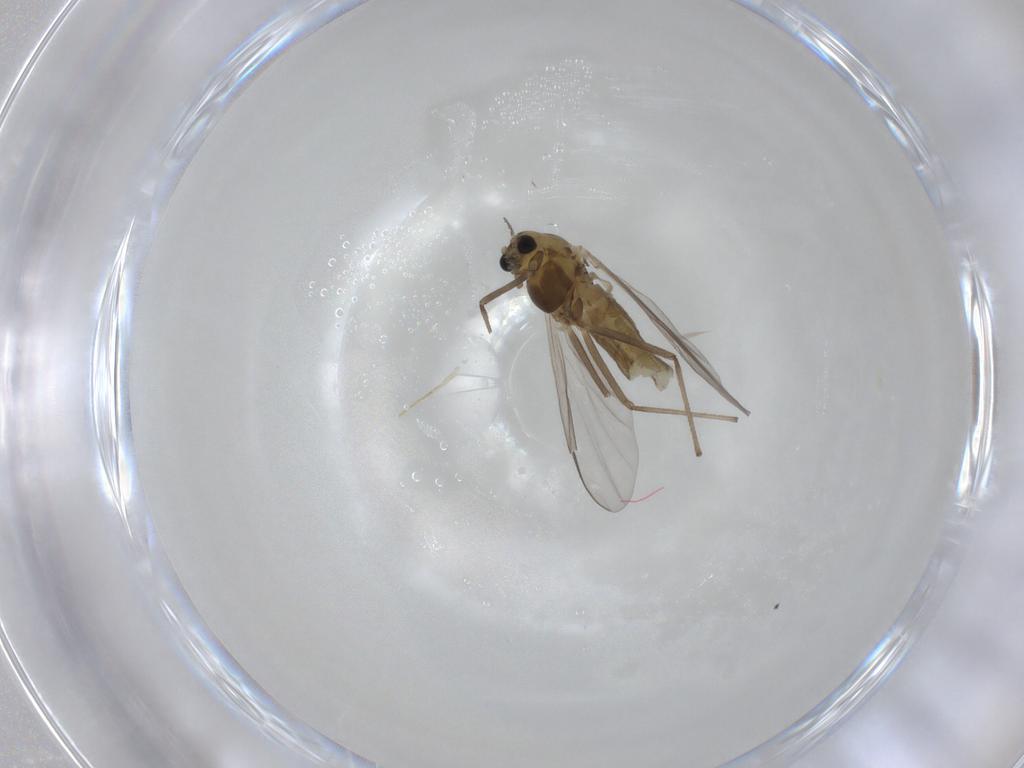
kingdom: Animalia
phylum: Arthropoda
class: Insecta
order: Diptera
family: Chironomidae
